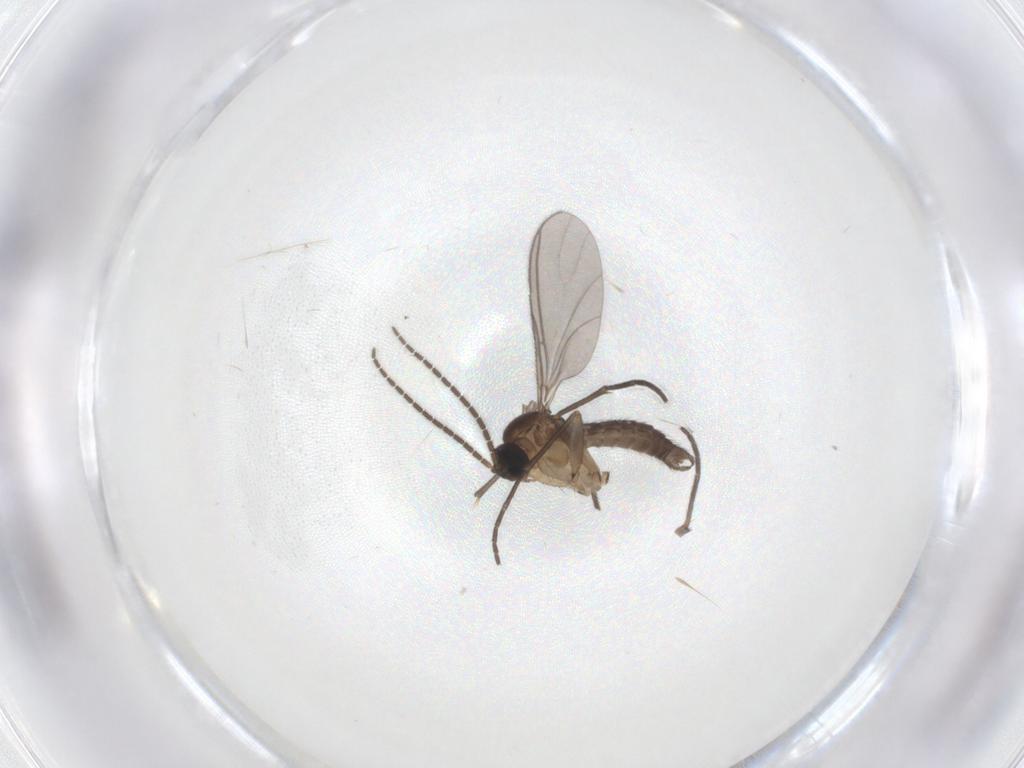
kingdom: Animalia
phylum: Arthropoda
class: Insecta
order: Diptera
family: Sciaridae
